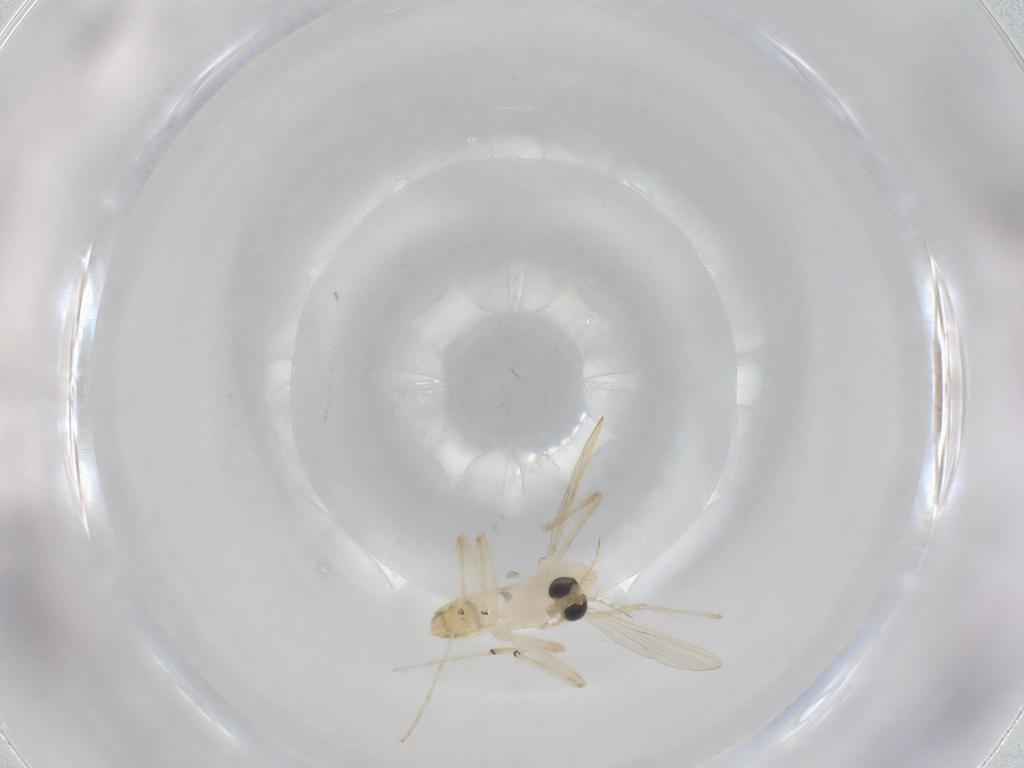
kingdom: Animalia
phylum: Arthropoda
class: Insecta
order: Diptera
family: Chironomidae
